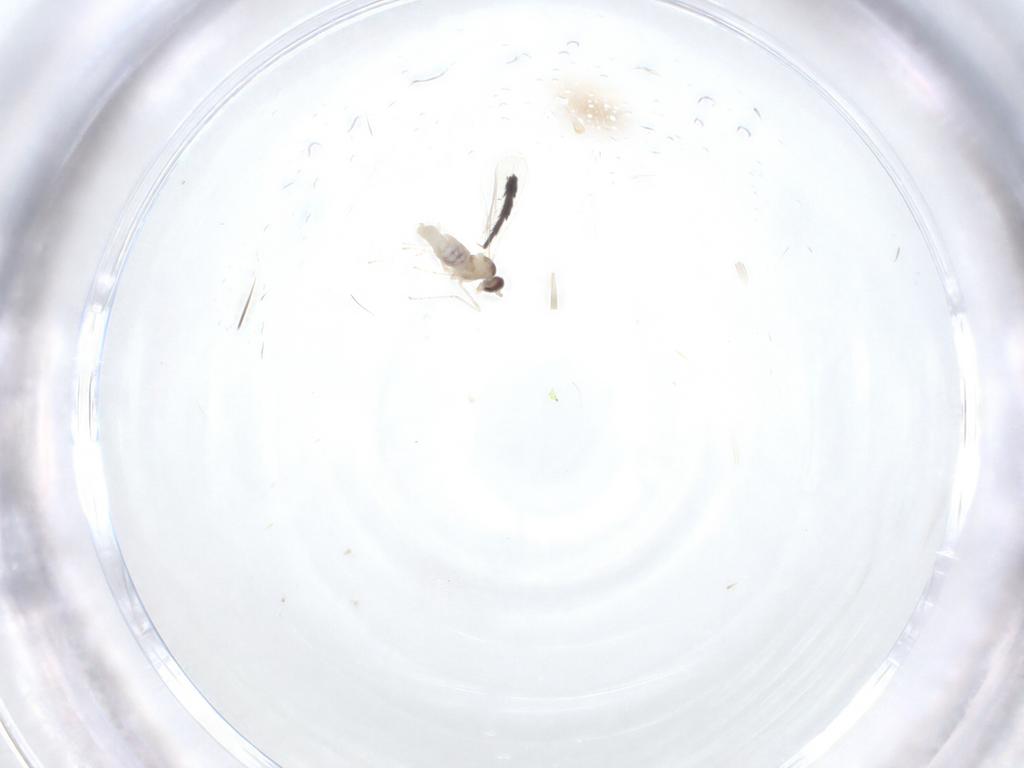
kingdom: Animalia
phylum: Arthropoda
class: Insecta
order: Diptera
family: Cecidomyiidae
